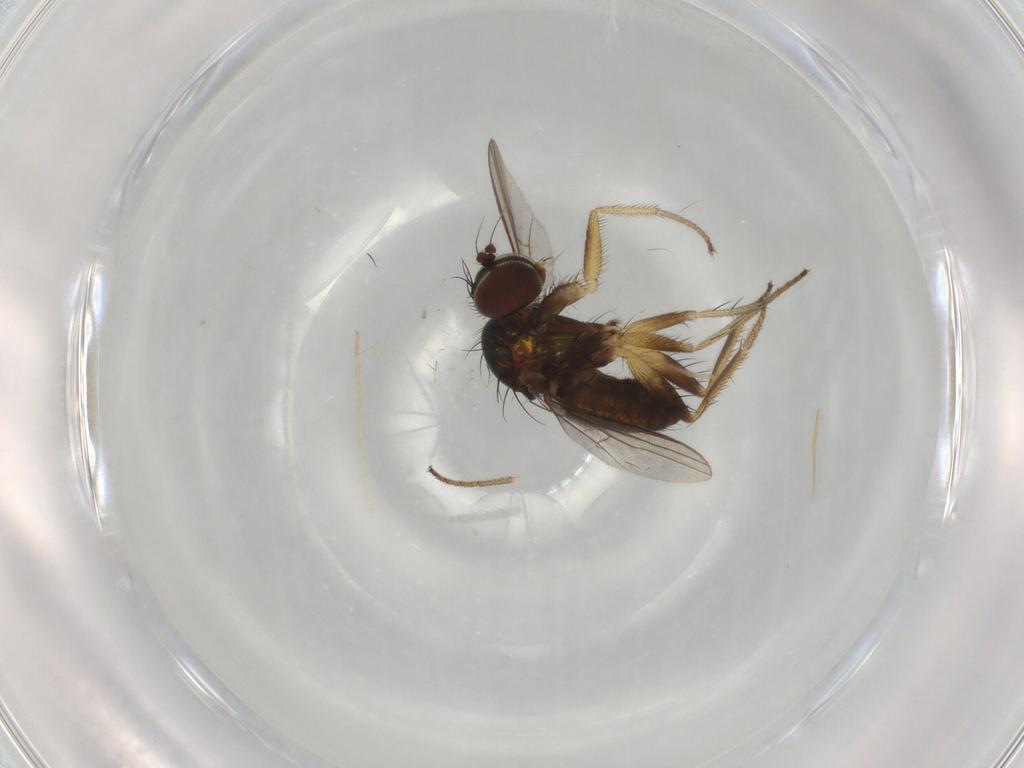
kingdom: Animalia
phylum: Arthropoda
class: Insecta
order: Diptera
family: Dolichopodidae
